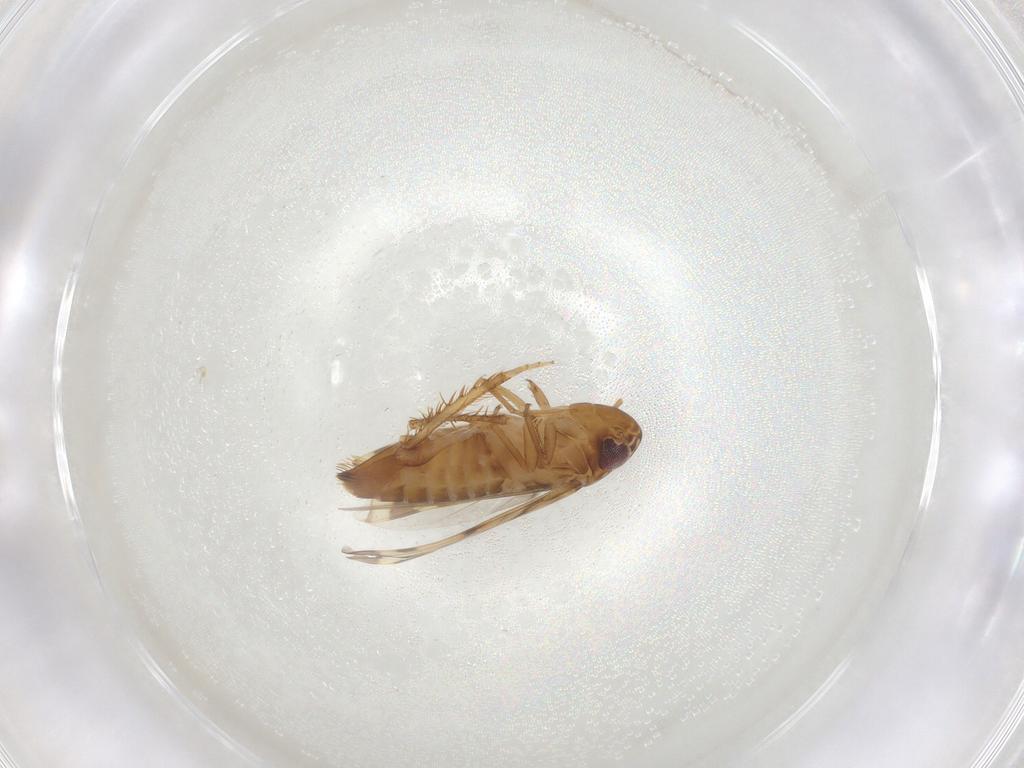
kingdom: Animalia
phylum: Arthropoda
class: Insecta
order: Hemiptera
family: Cicadellidae
